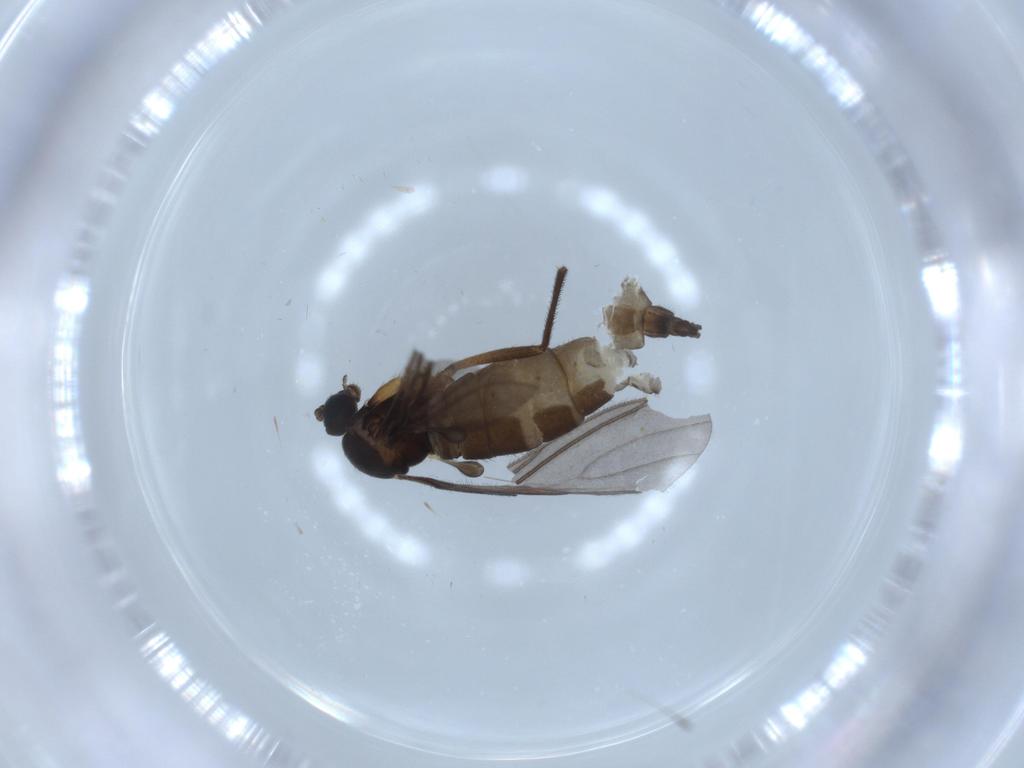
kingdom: Animalia
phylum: Arthropoda
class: Insecta
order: Diptera
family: Sciaridae
